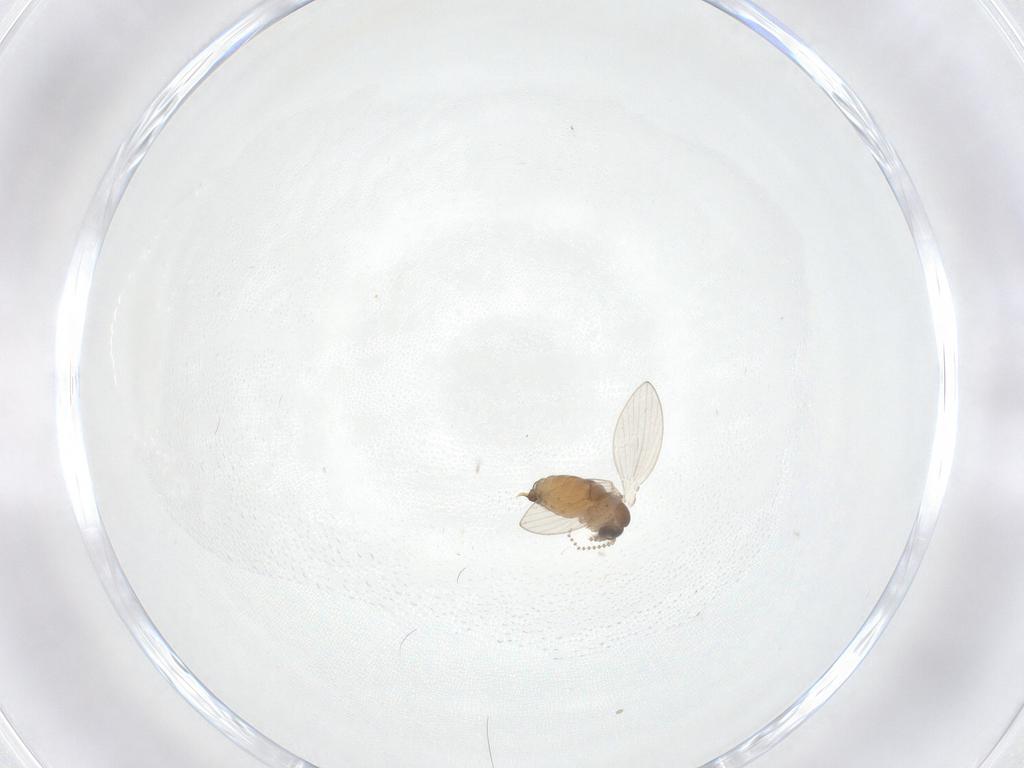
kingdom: Animalia
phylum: Arthropoda
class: Insecta
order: Diptera
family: Psychodidae
